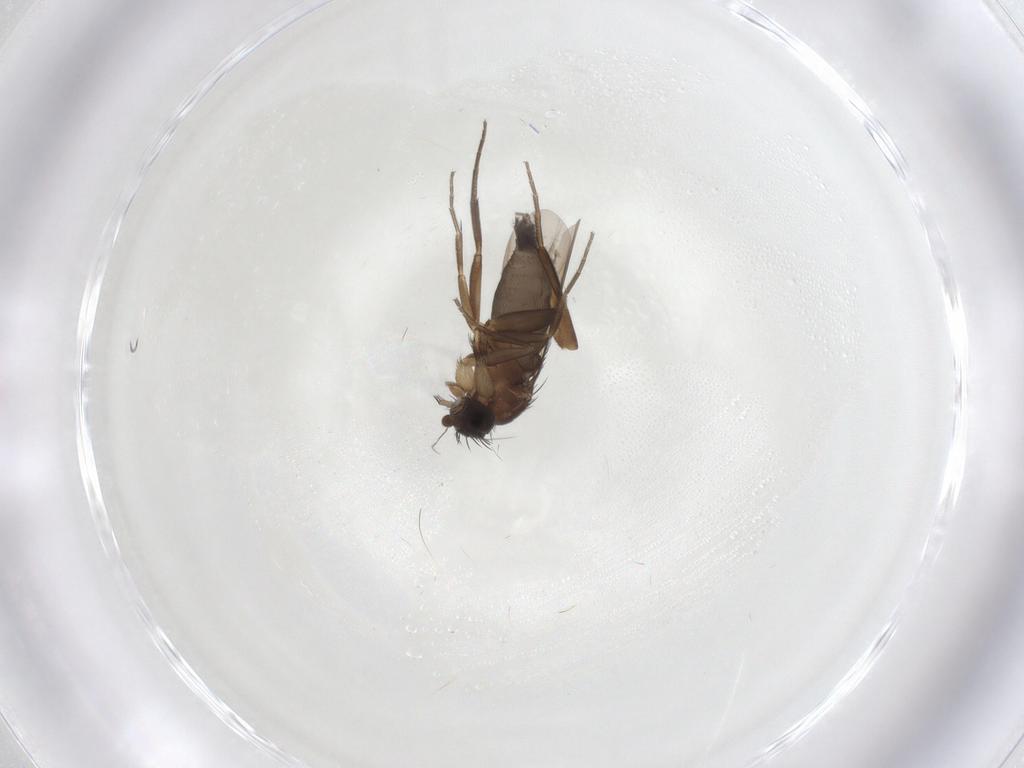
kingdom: Animalia
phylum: Arthropoda
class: Insecta
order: Diptera
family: Phoridae
